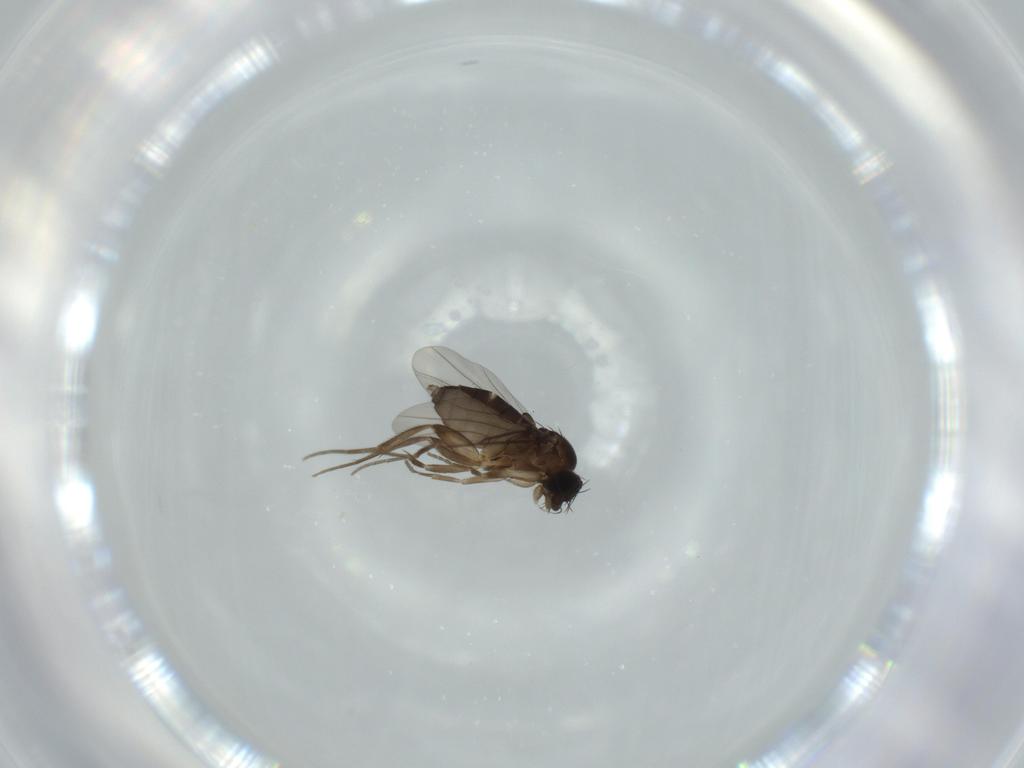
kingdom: Animalia
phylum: Arthropoda
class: Insecta
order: Diptera
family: Phoridae
